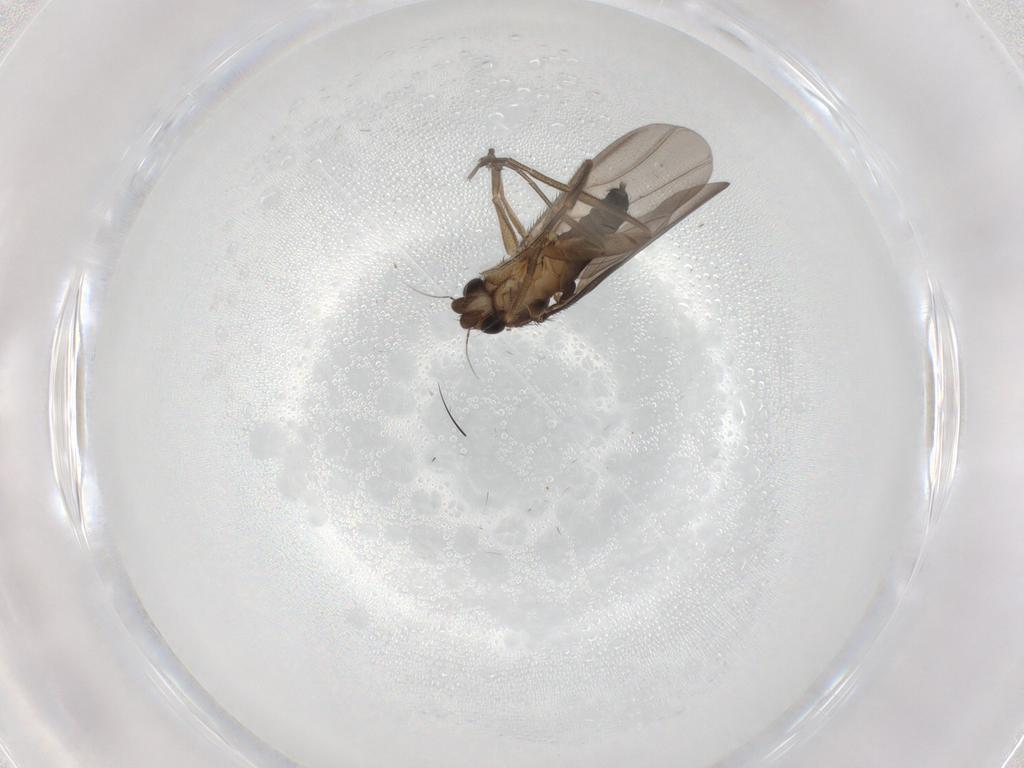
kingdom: Animalia
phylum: Arthropoda
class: Insecta
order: Diptera
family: Phoridae
